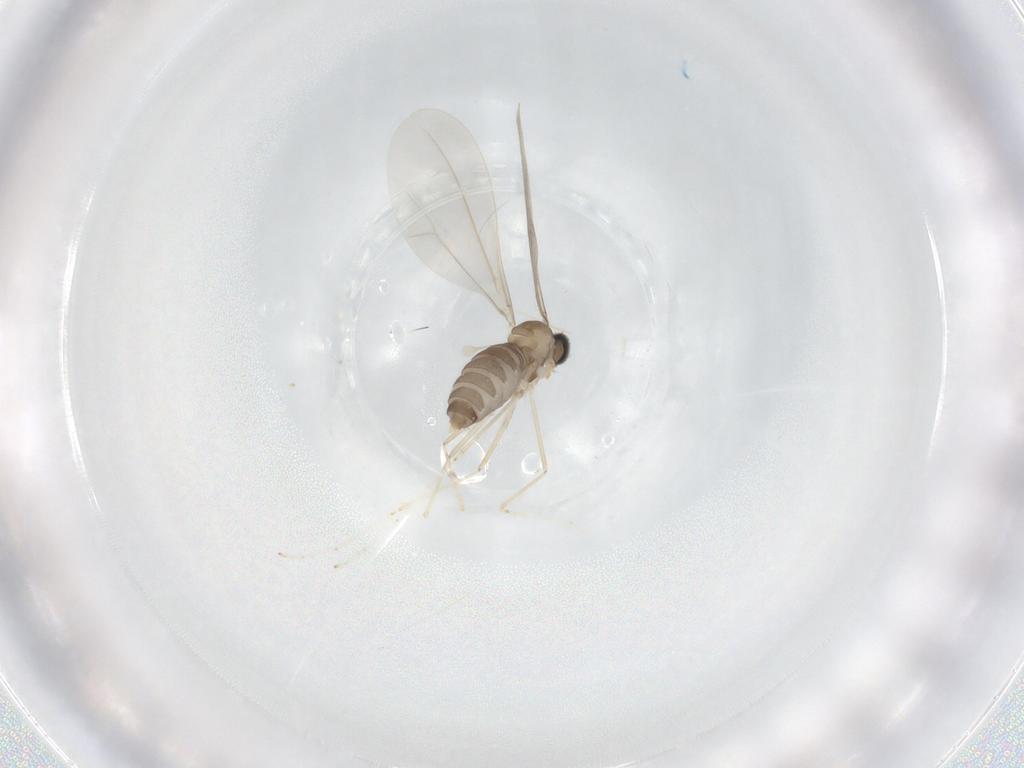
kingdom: Animalia
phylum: Arthropoda
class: Insecta
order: Diptera
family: Cecidomyiidae
